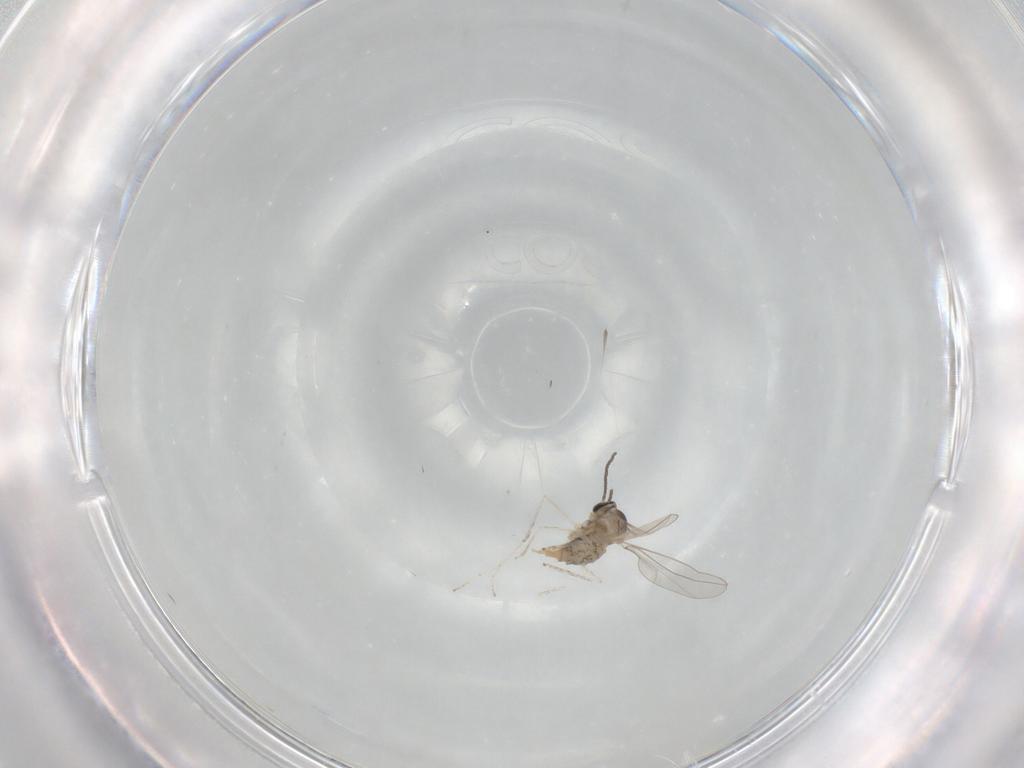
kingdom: Animalia
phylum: Arthropoda
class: Insecta
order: Diptera
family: Cecidomyiidae
